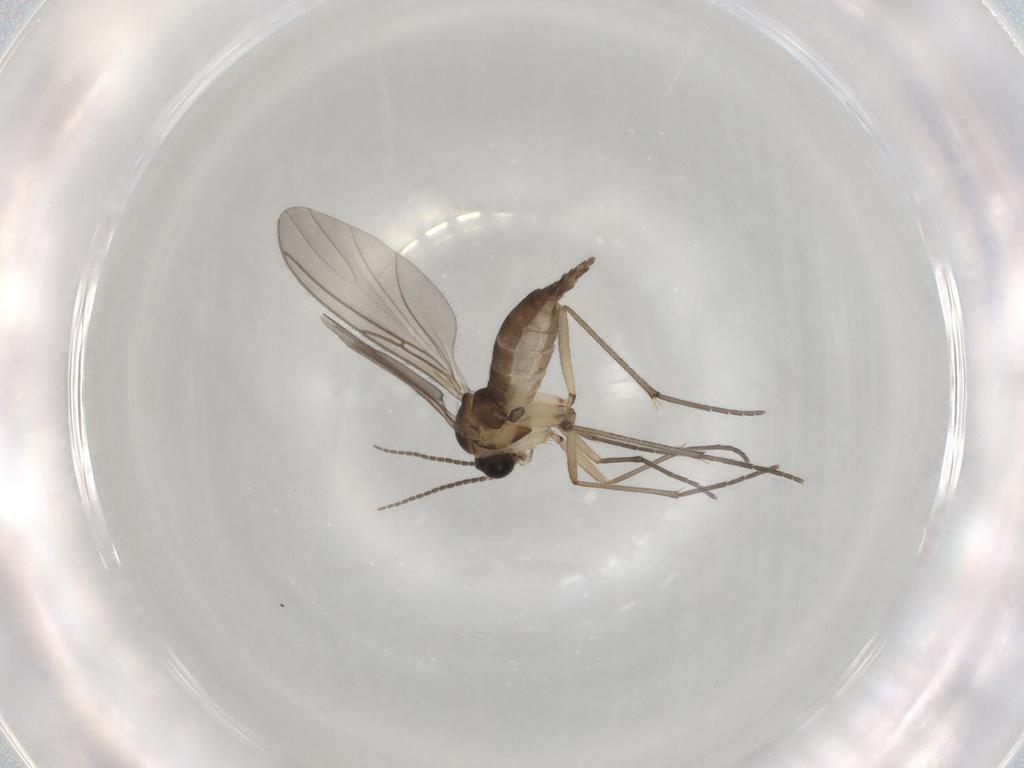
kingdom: Animalia
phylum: Arthropoda
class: Insecta
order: Diptera
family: Sciaridae
